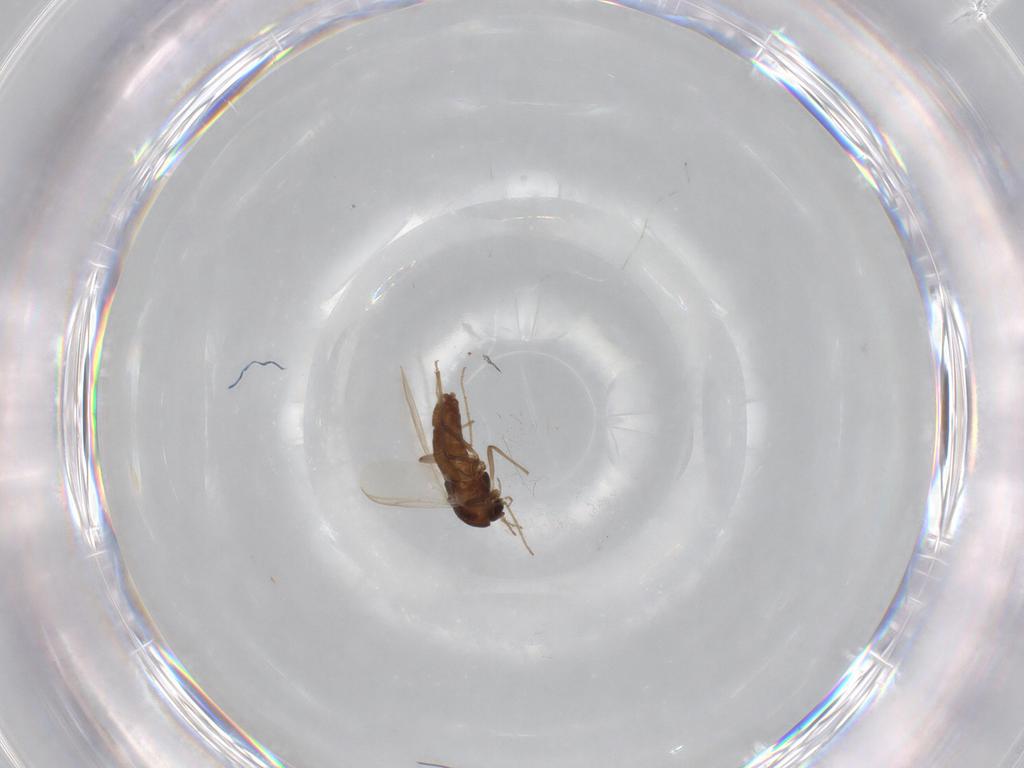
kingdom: Animalia
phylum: Arthropoda
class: Insecta
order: Diptera
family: Chironomidae
